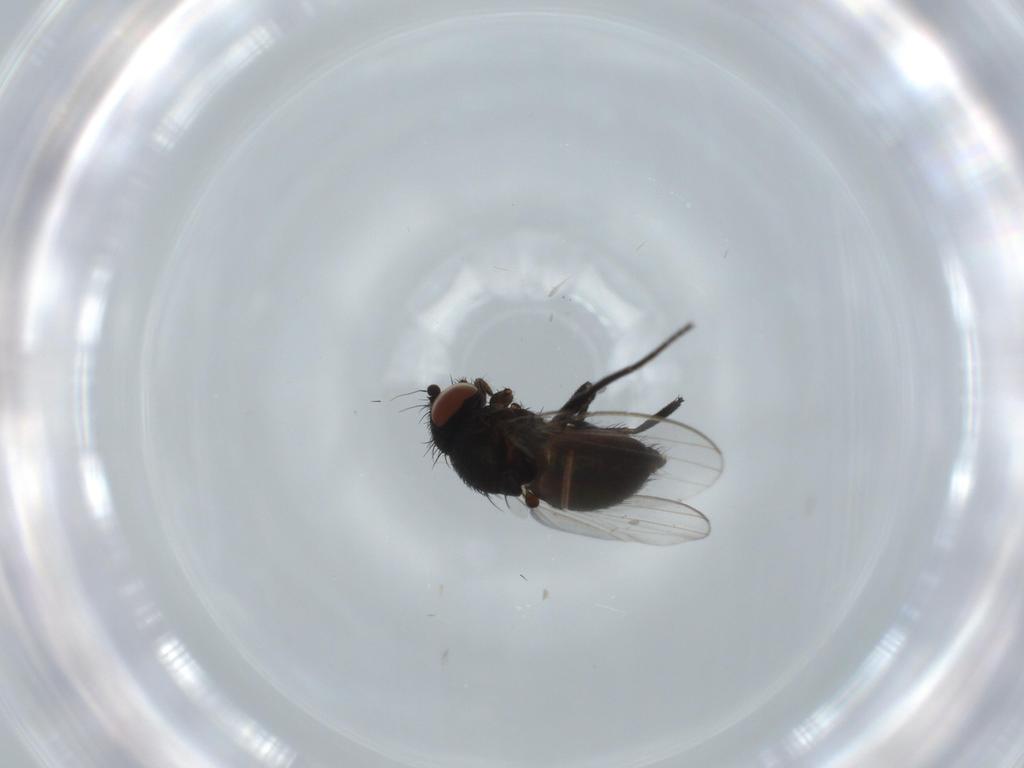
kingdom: Animalia
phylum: Arthropoda
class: Insecta
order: Diptera
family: Milichiidae
